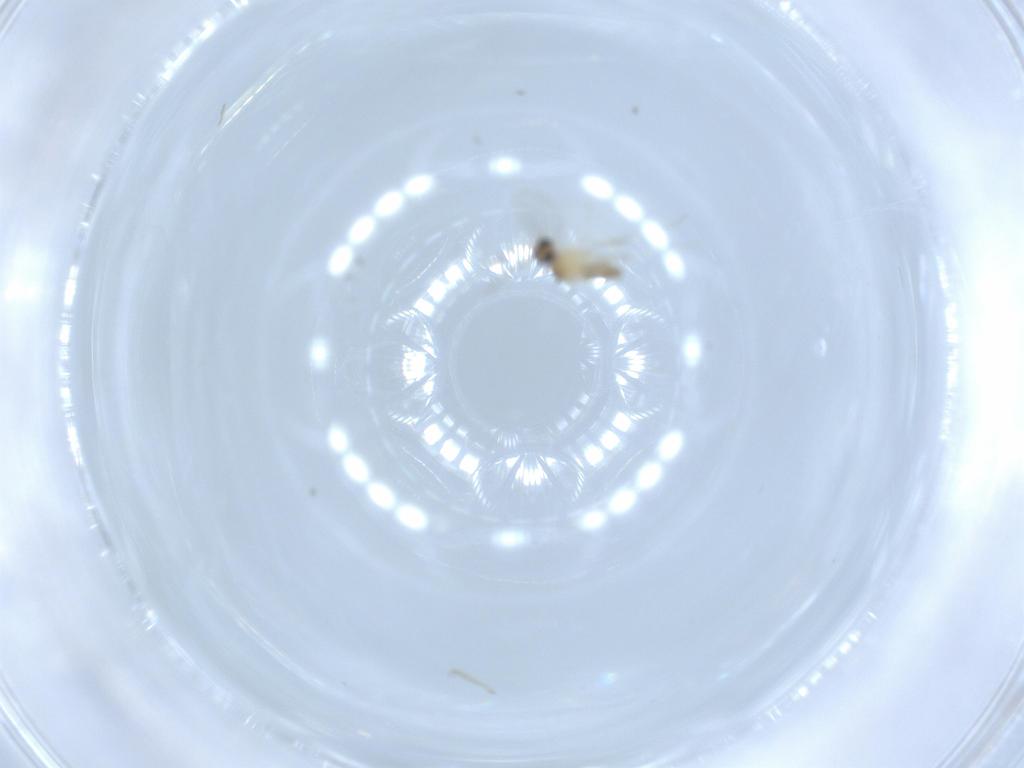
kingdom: Animalia
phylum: Arthropoda
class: Insecta
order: Diptera
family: Cecidomyiidae
